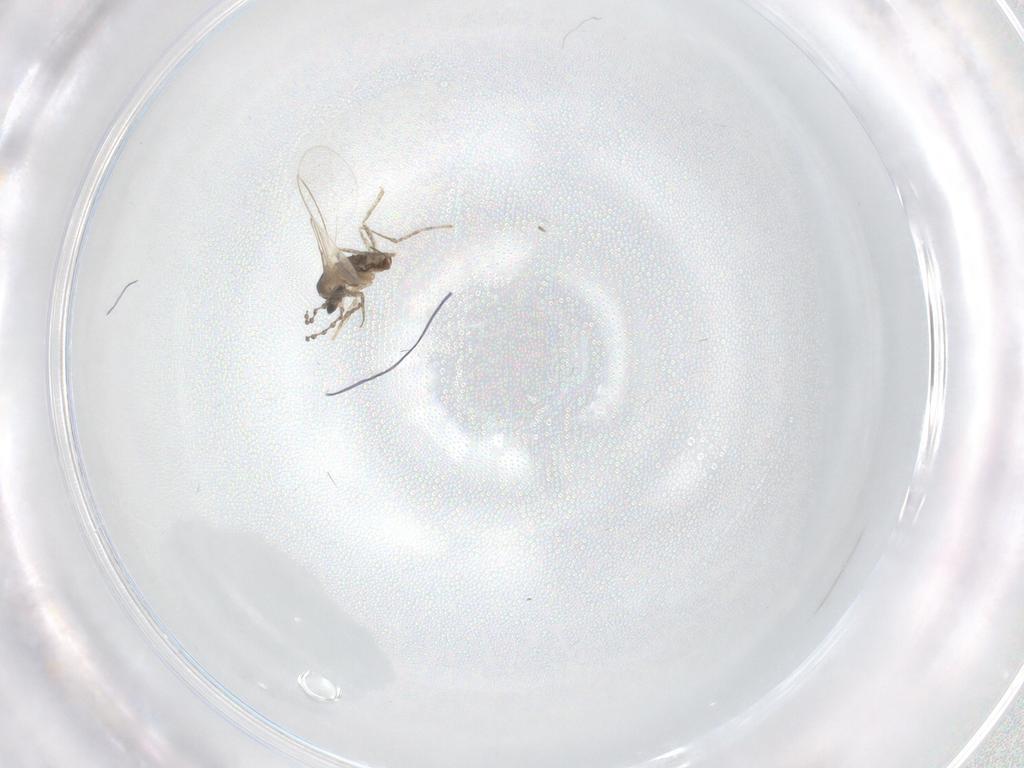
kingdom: Animalia
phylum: Arthropoda
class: Insecta
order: Diptera
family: Cecidomyiidae
